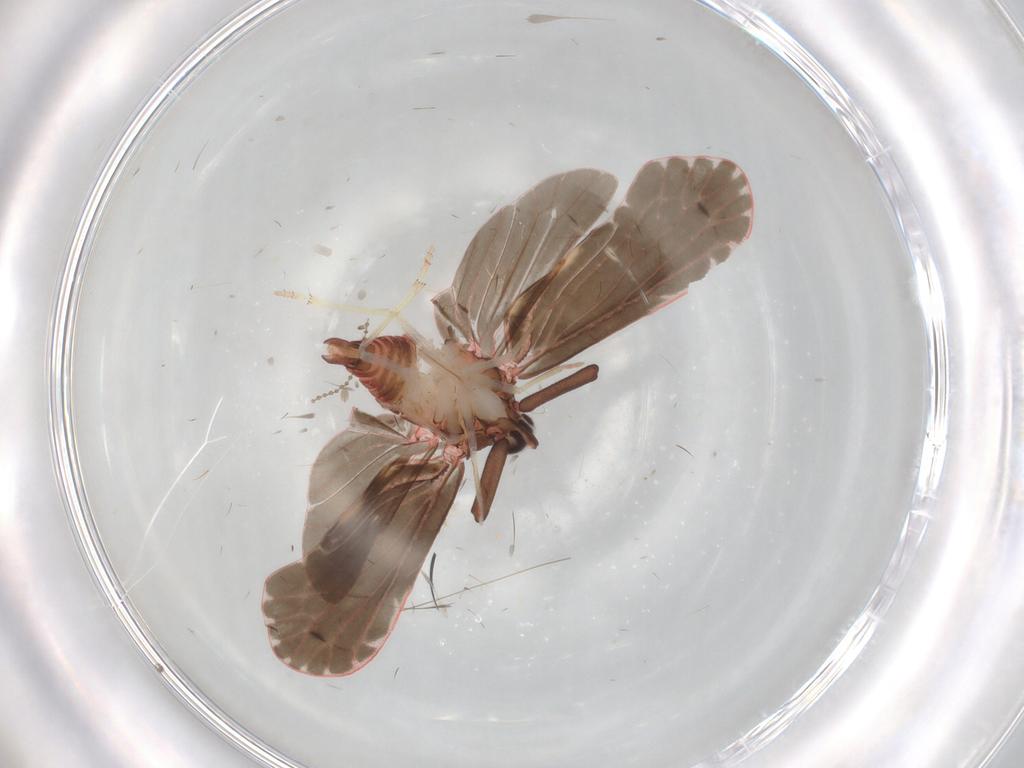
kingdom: Animalia
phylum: Arthropoda
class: Insecta
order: Hemiptera
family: Derbidae
